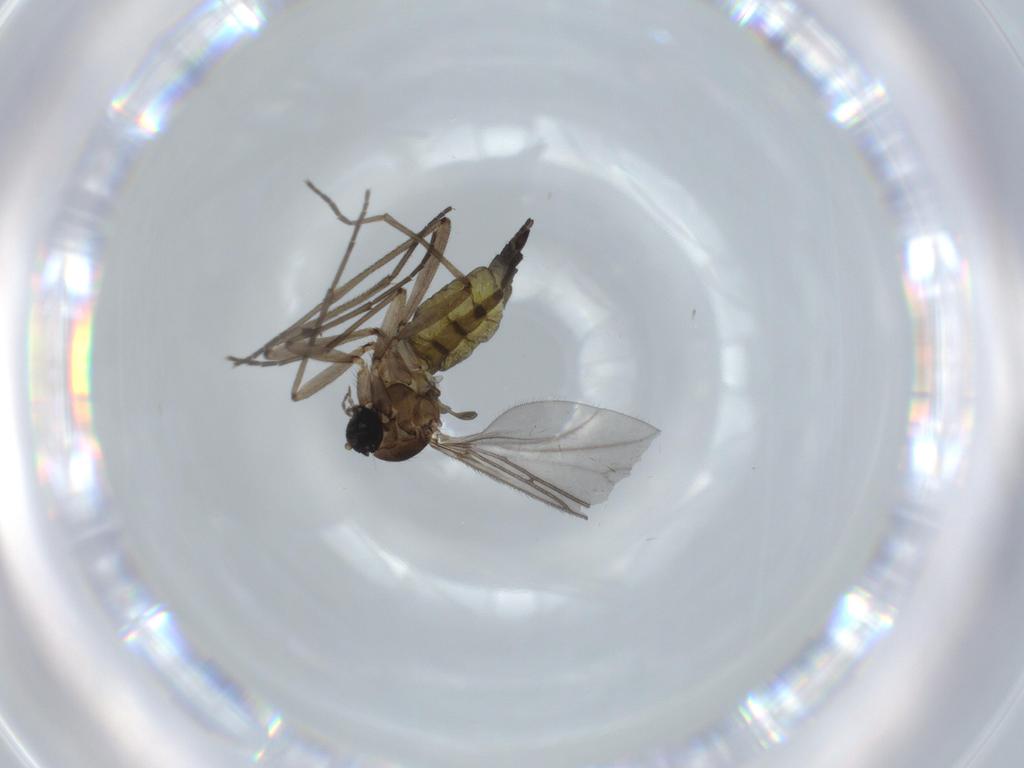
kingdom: Animalia
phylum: Arthropoda
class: Insecta
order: Diptera
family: Sciaridae
